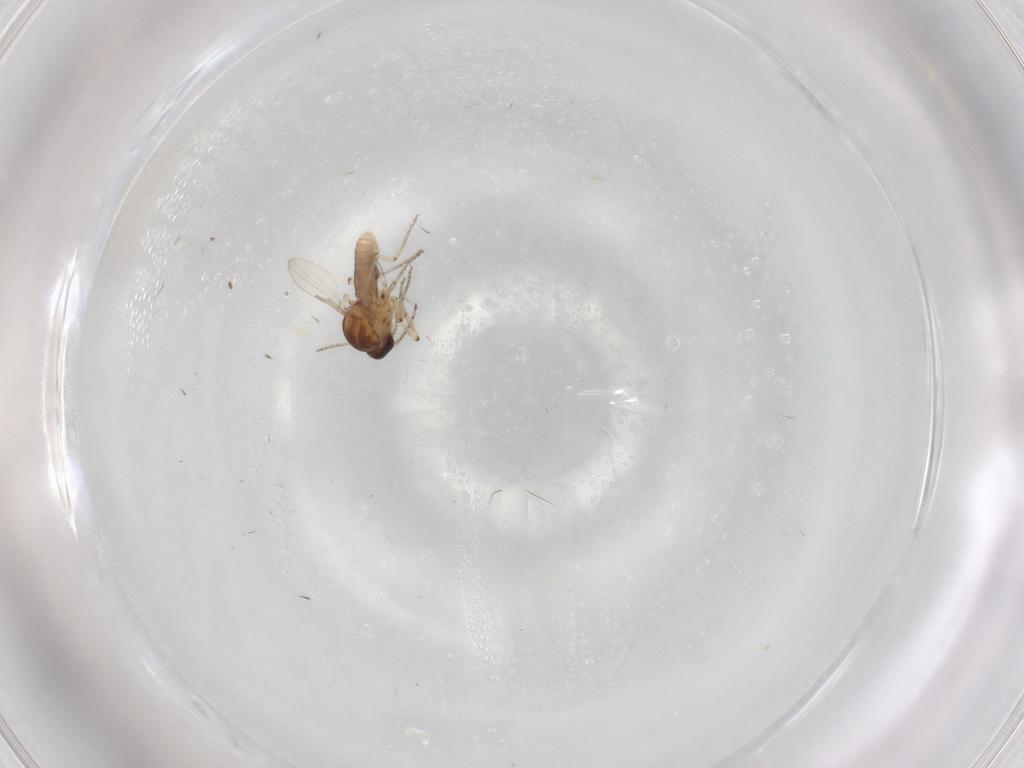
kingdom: Animalia
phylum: Arthropoda
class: Insecta
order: Diptera
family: Ceratopogonidae
